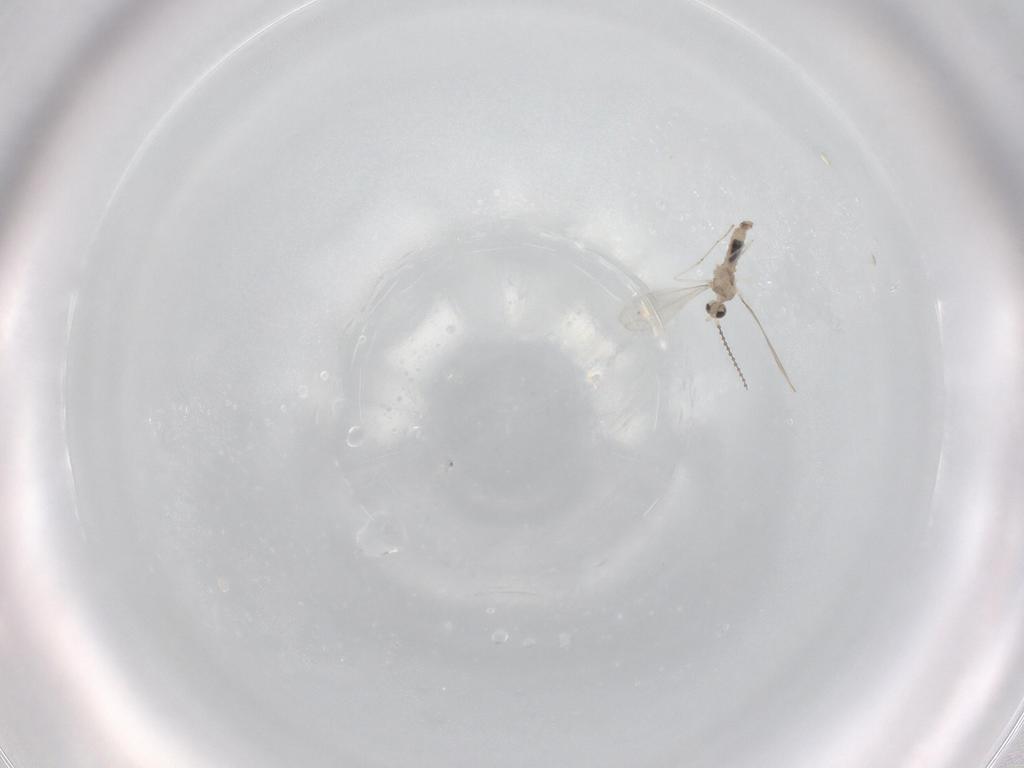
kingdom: Animalia
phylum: Arthropoda
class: Insecta
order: Diptera
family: Cecidomyiidae
